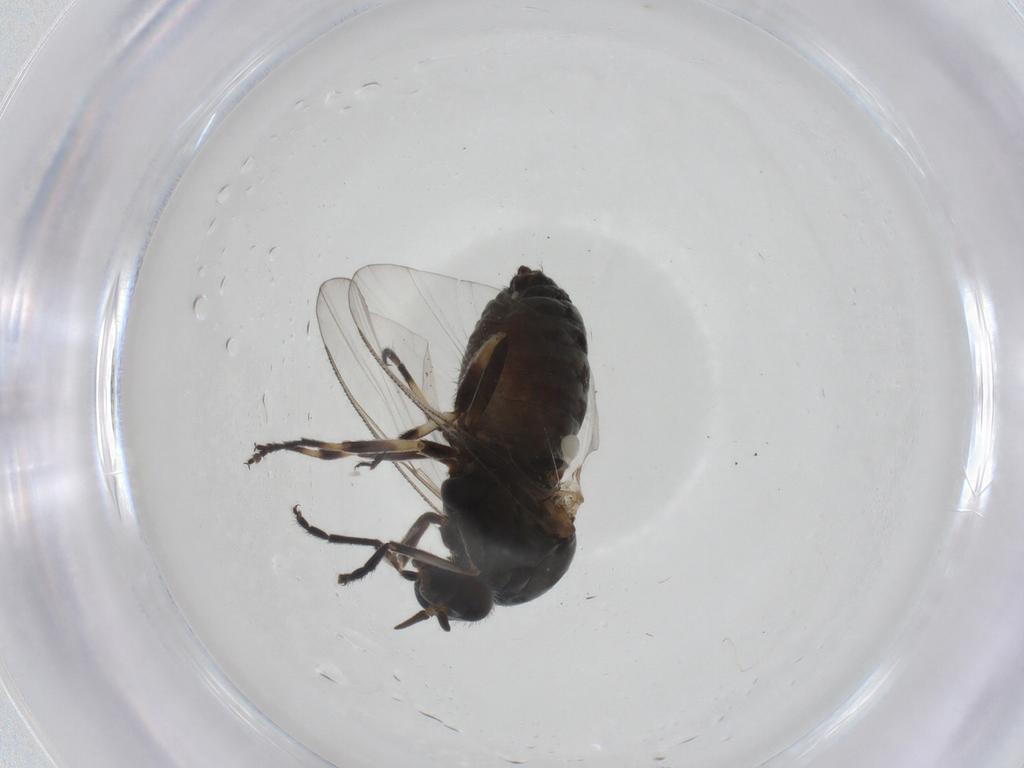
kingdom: Animalia
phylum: Arthropoda
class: Insecta
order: Diptera
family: Simuliidae
